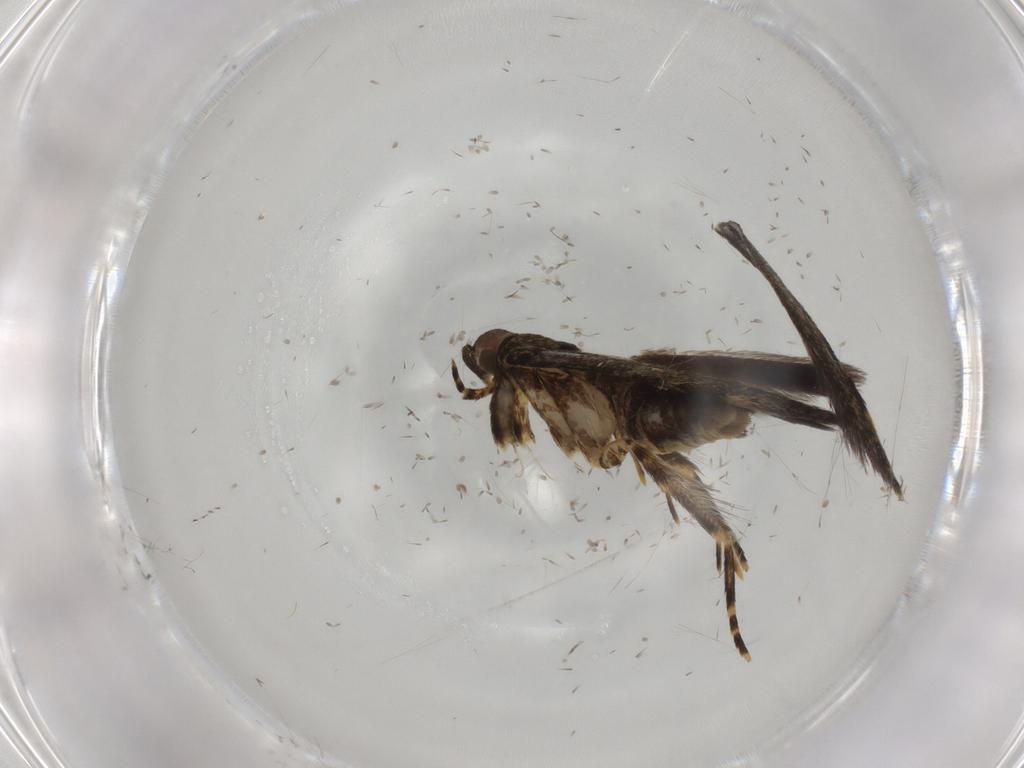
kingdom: Animalia
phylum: Arthropoda
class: Insecta
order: Lepidoptera
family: Oecophoridae
